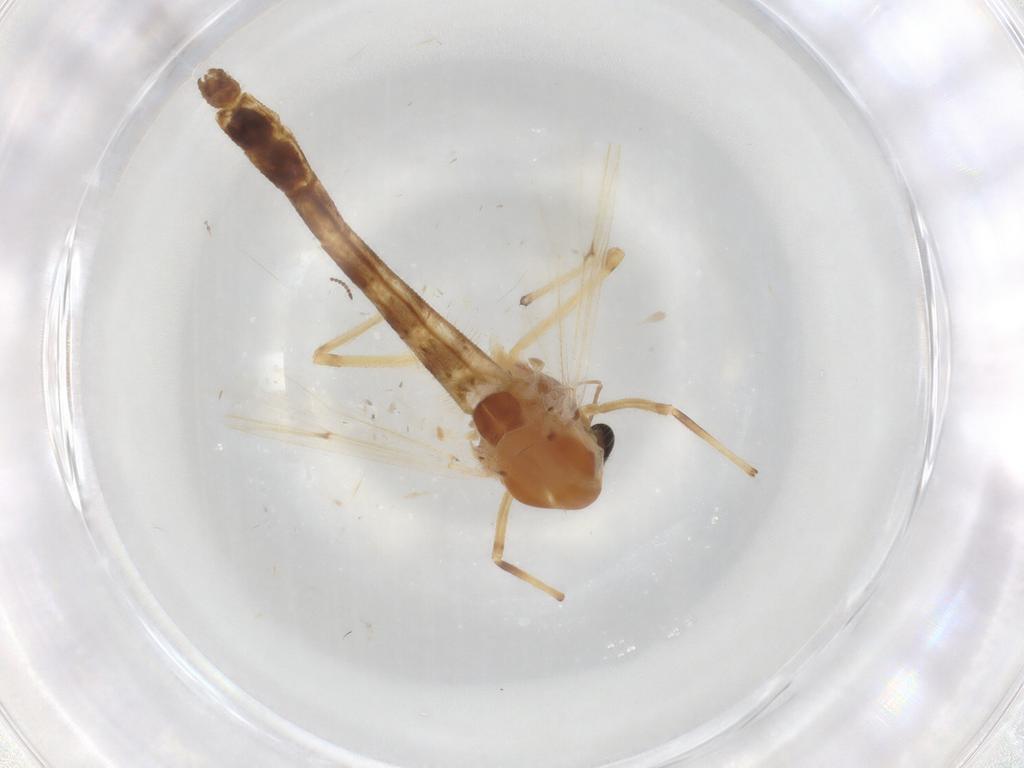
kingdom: Animalia
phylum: Arthropoda
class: Insecta
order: Diptera
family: Chironomidae
